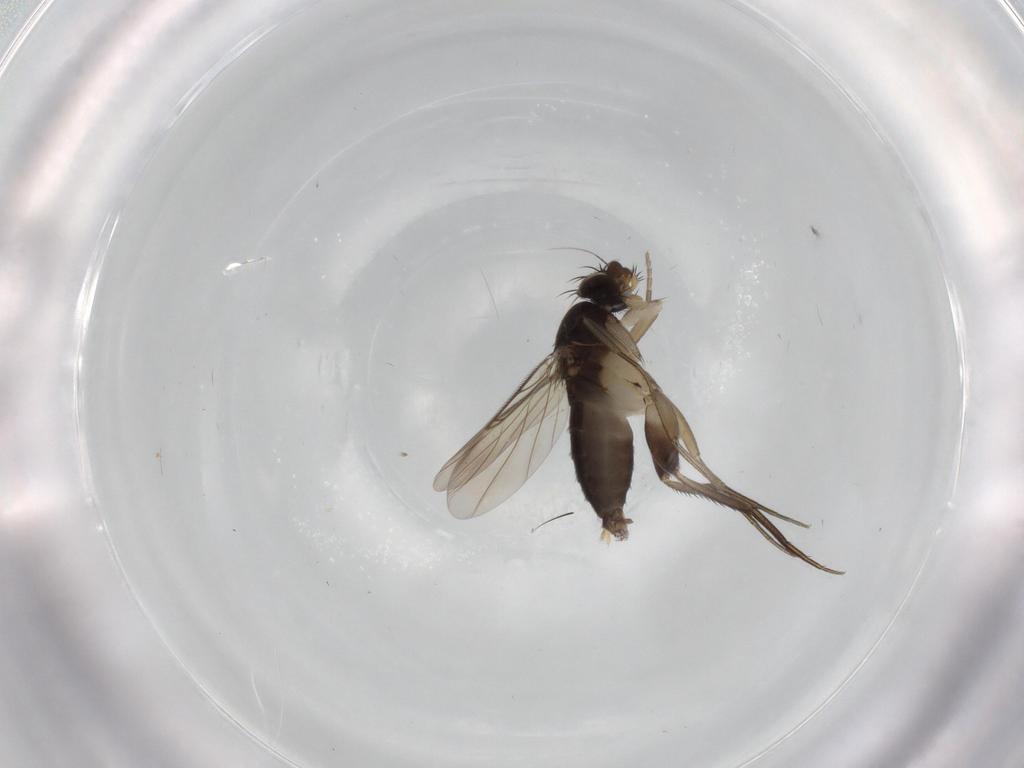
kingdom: Animalia
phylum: Arthropoda
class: Insecta
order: Diptera
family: Phoridae
